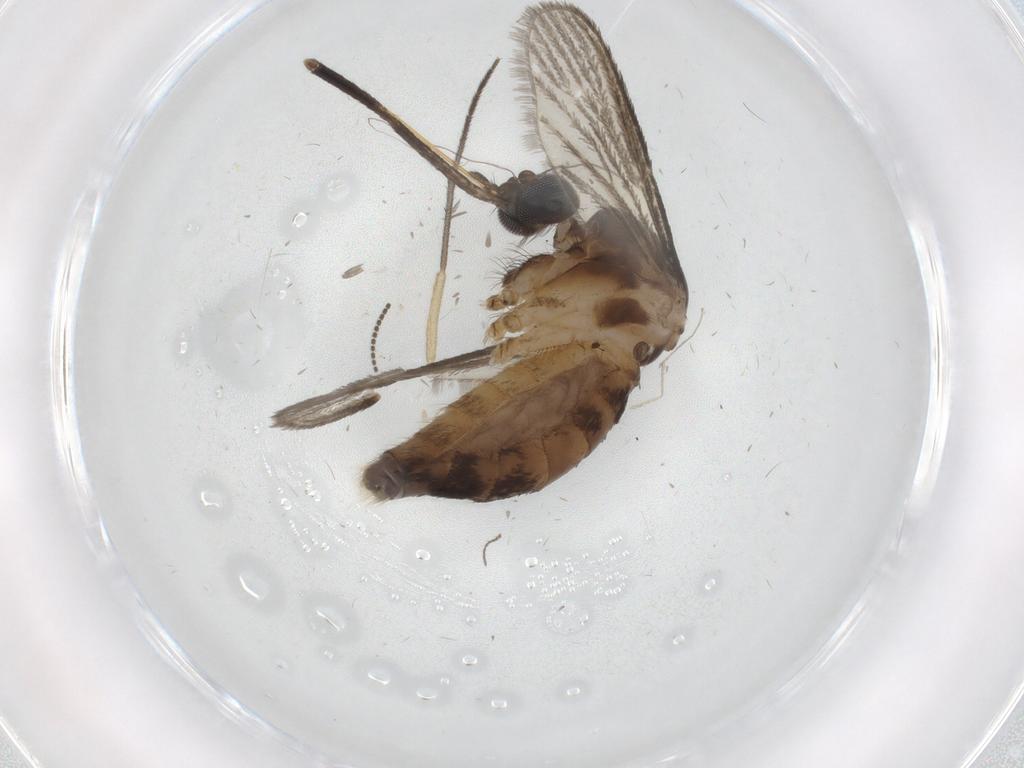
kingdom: Animalia
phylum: Arthropoda
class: Insecta
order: Diptera
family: Culicidae
